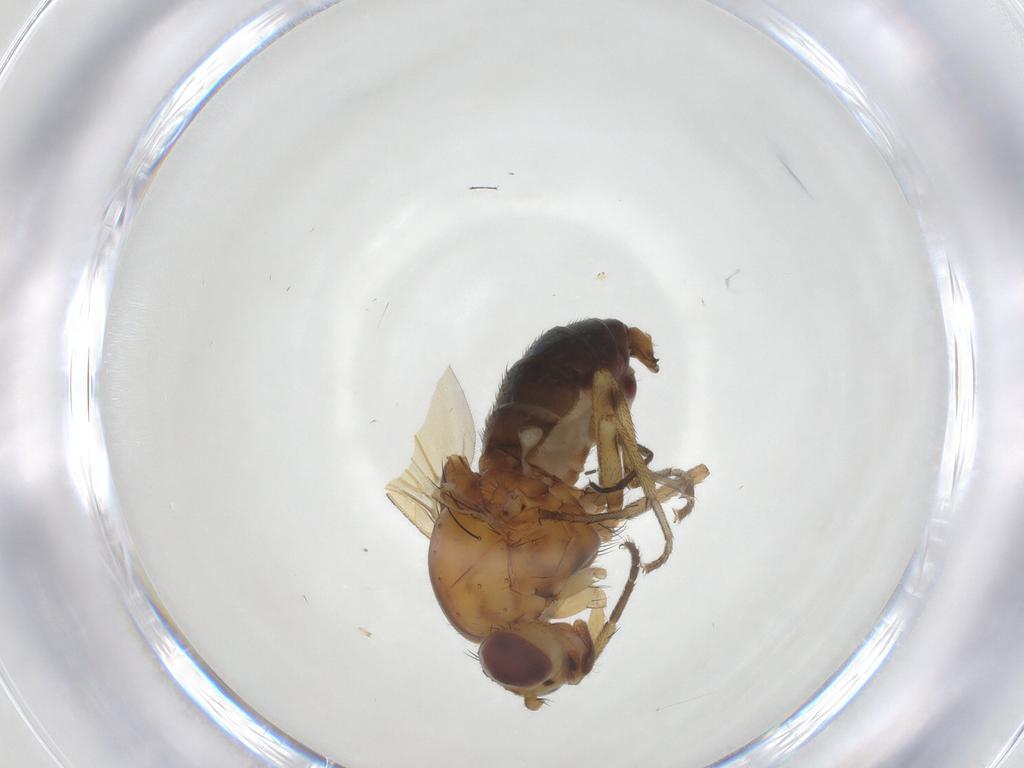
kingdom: Animalia
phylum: Arthropoda
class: Insecta
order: Diptera
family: Lauxaniidae
